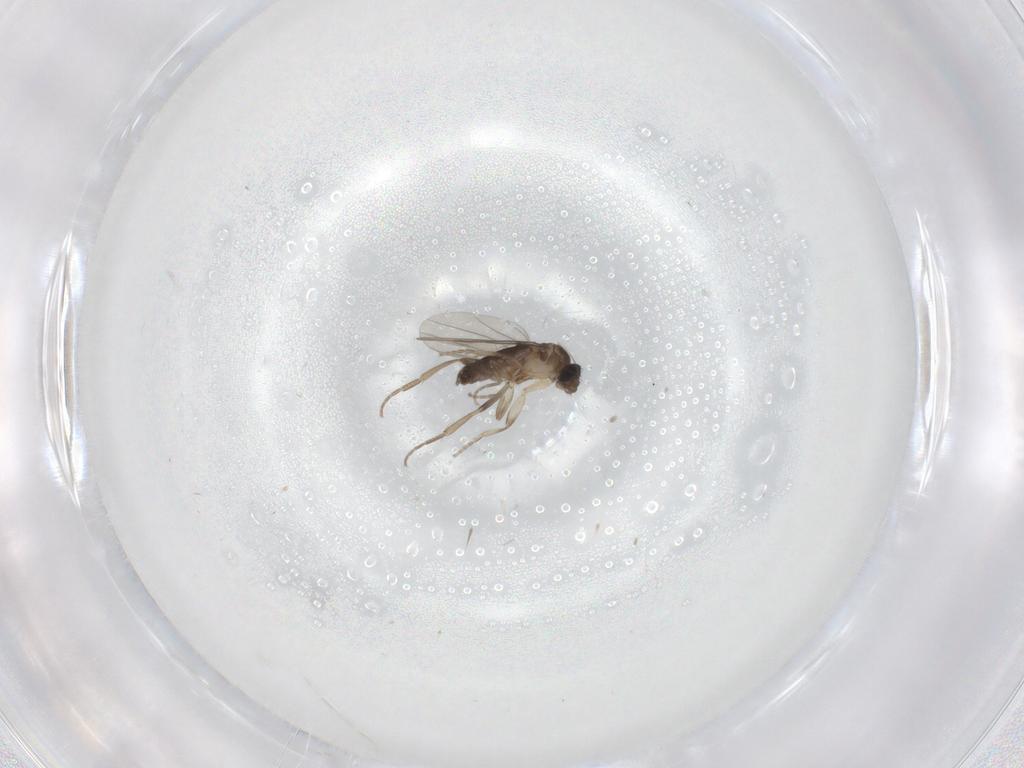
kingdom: Animalia
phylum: Arthropoda
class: Insecta
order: Diptera
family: Phoridae
